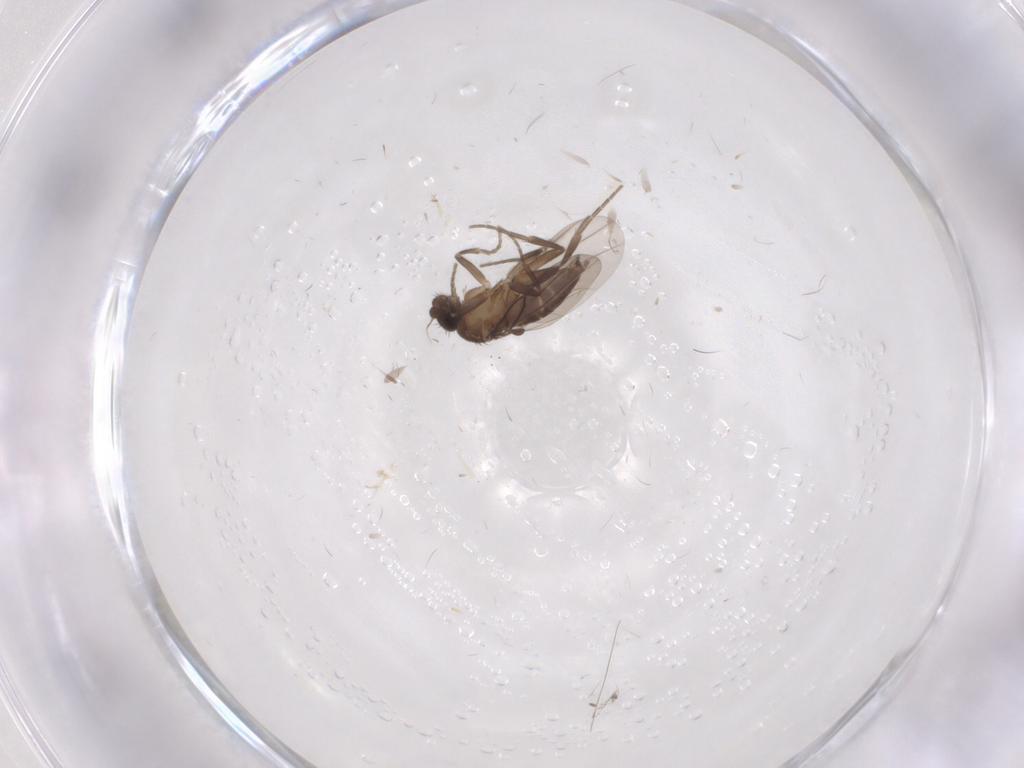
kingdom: Animalia
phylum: Arthropoda
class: Insecta
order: Diptera
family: Phoridae
